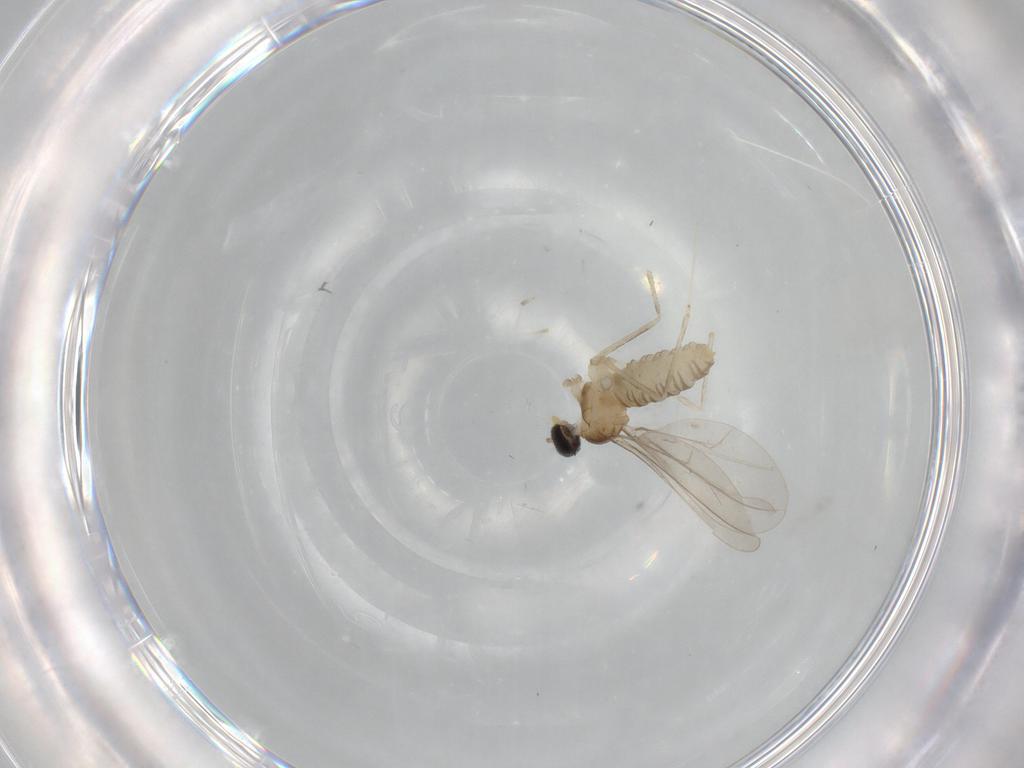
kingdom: Animalia
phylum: Arthropoda
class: Insecta
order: Diptera
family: Cecidomyiidae
